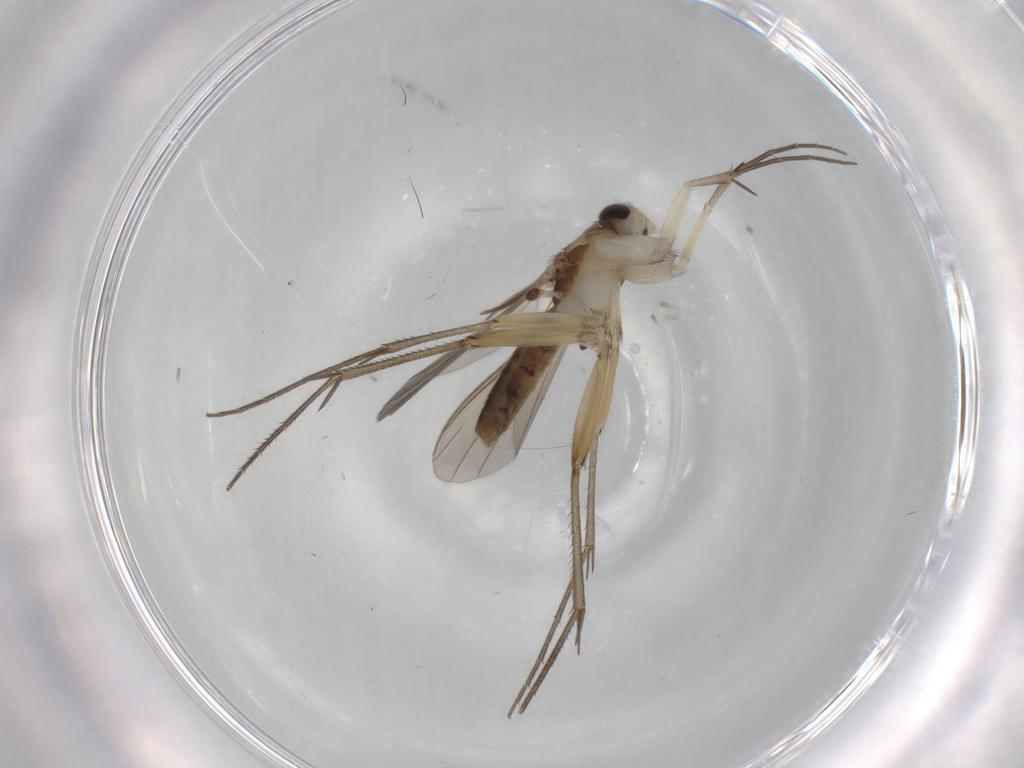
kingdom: Animalia
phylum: Arthropoda
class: Insecta
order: Diptera
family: Mycetophilidae
